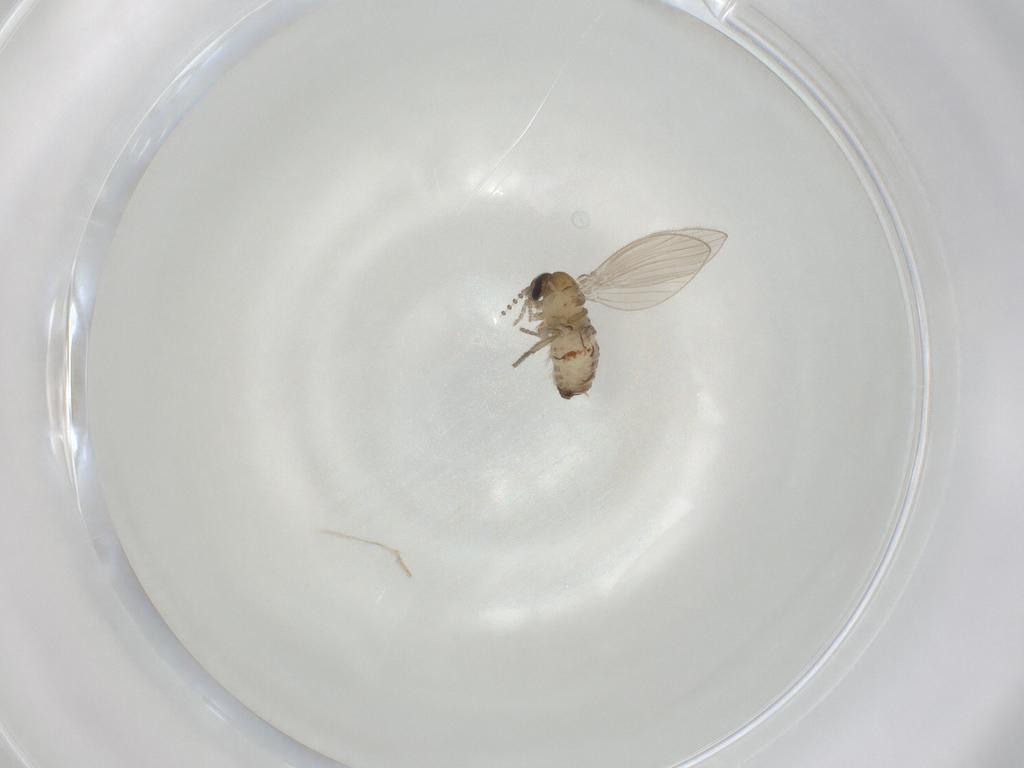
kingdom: Animalia
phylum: Arthropoda
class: Insecta
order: Diptera
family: Psychodidae
